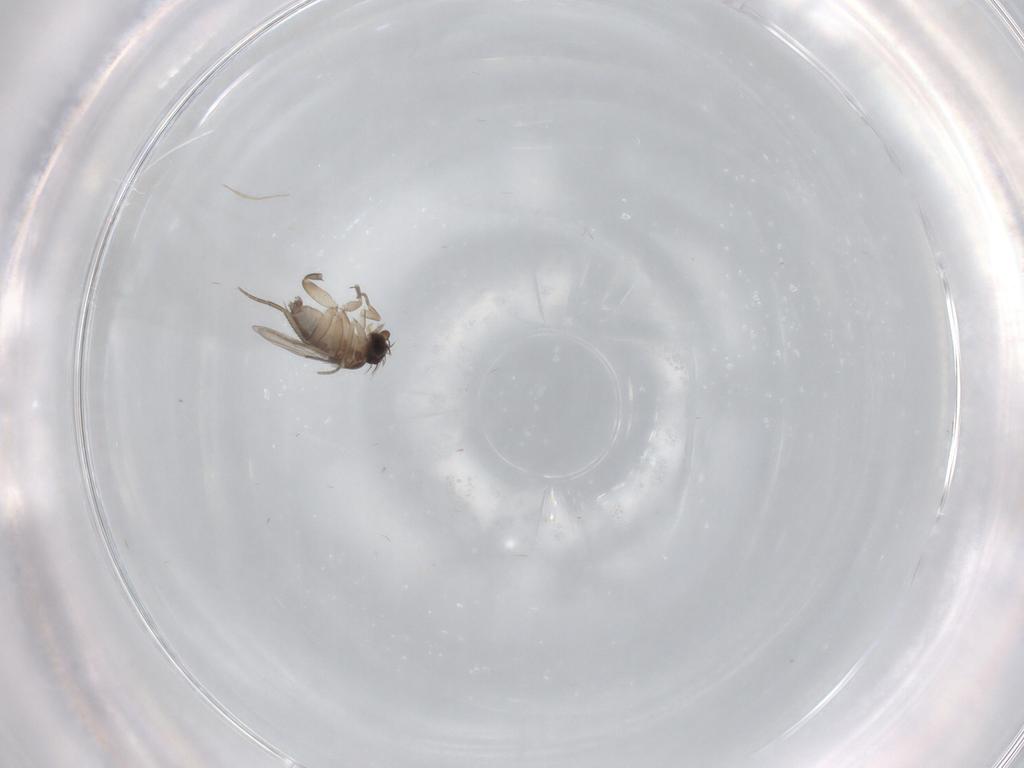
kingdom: Animalia
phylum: Arthropoda
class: Insecta
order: Diptera
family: Phoridae
